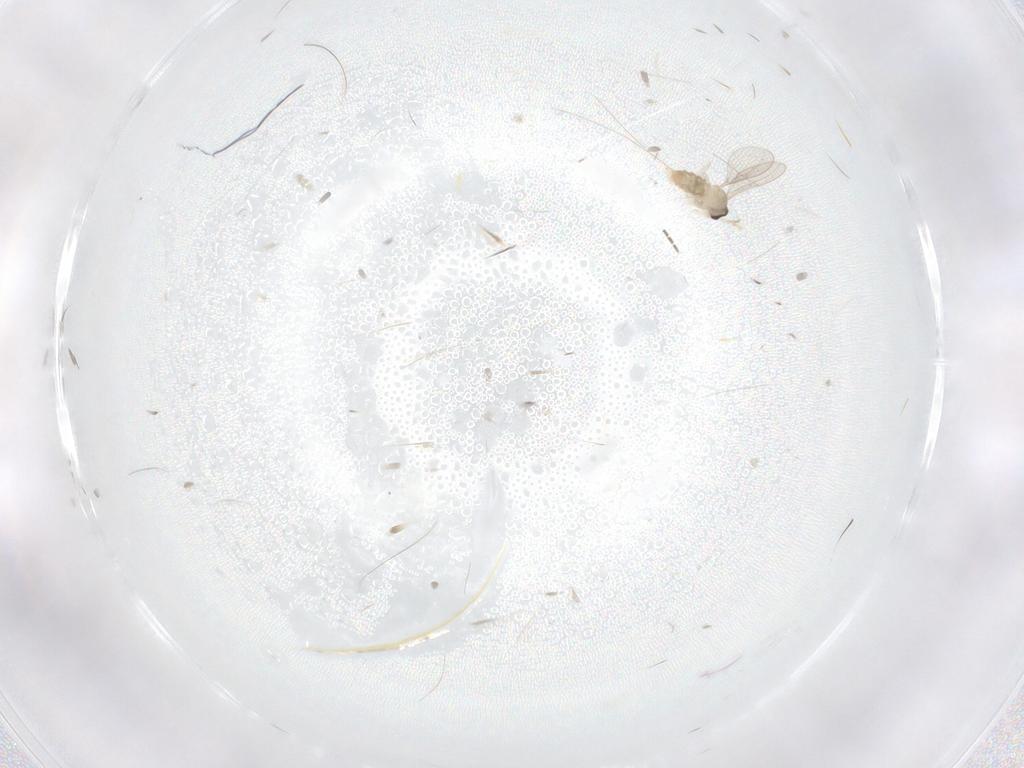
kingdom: Animalia
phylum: Arthropoda
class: Insecta
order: Diptera
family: Cecidomyiidae
